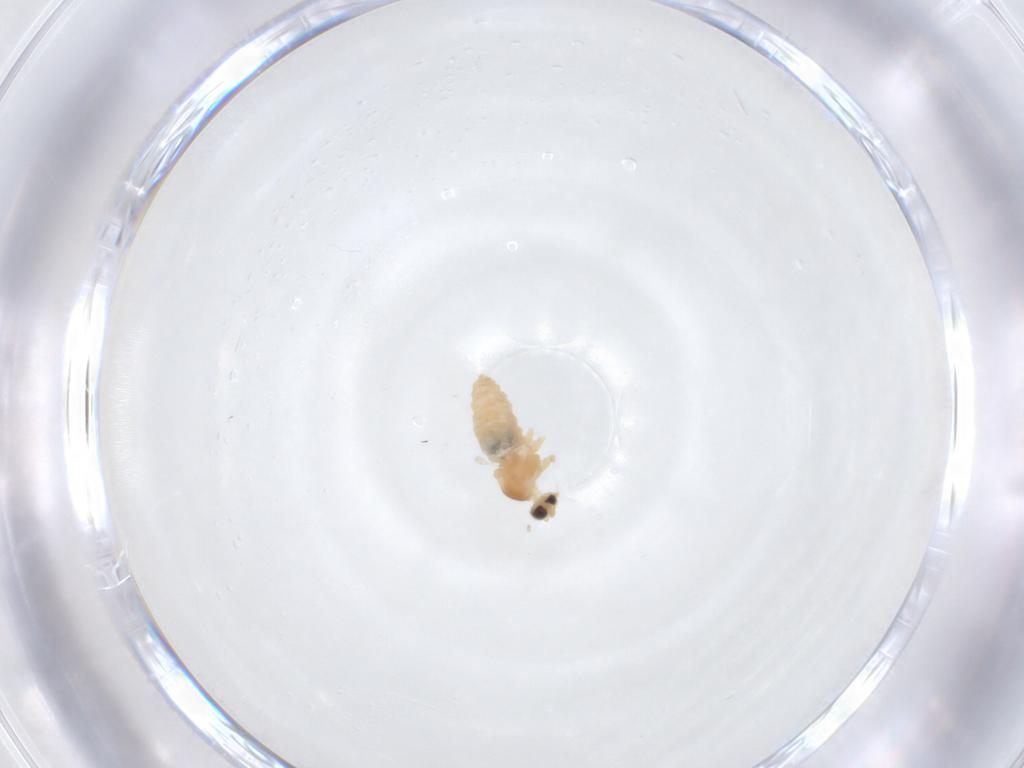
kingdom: Animalia
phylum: Arthropoda
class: Insecta
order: Diptera
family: Cecidomyiidae
